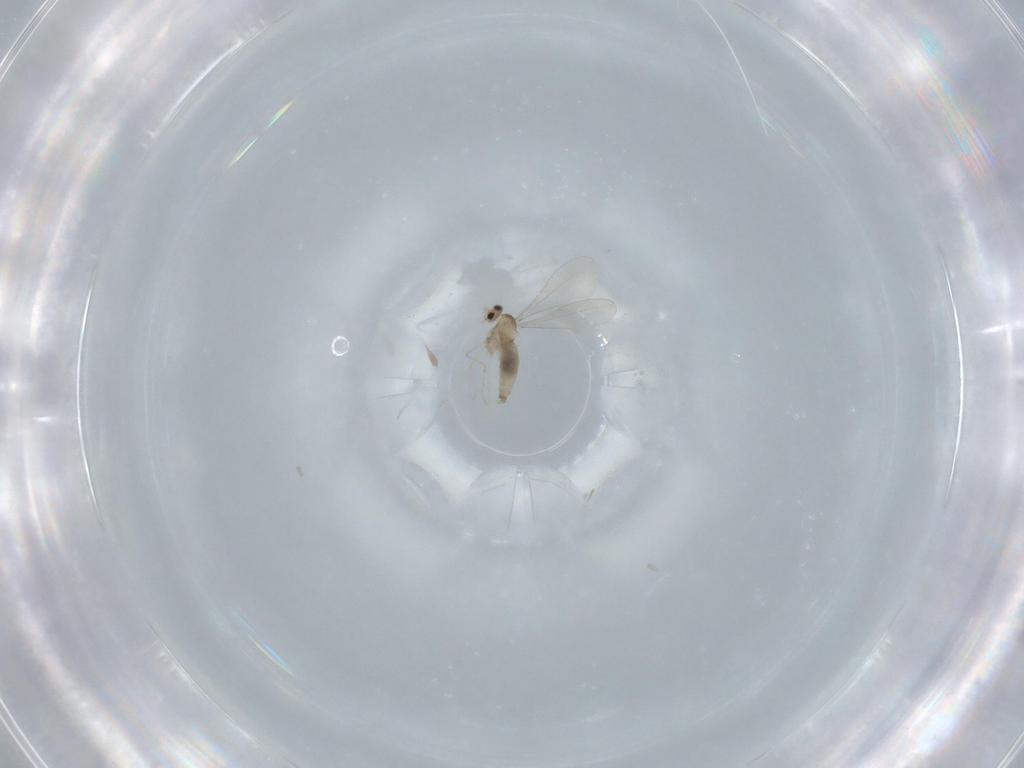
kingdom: Animalia
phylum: Arthropoda
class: Insecta
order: Diptera
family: Cecidomyiidae
